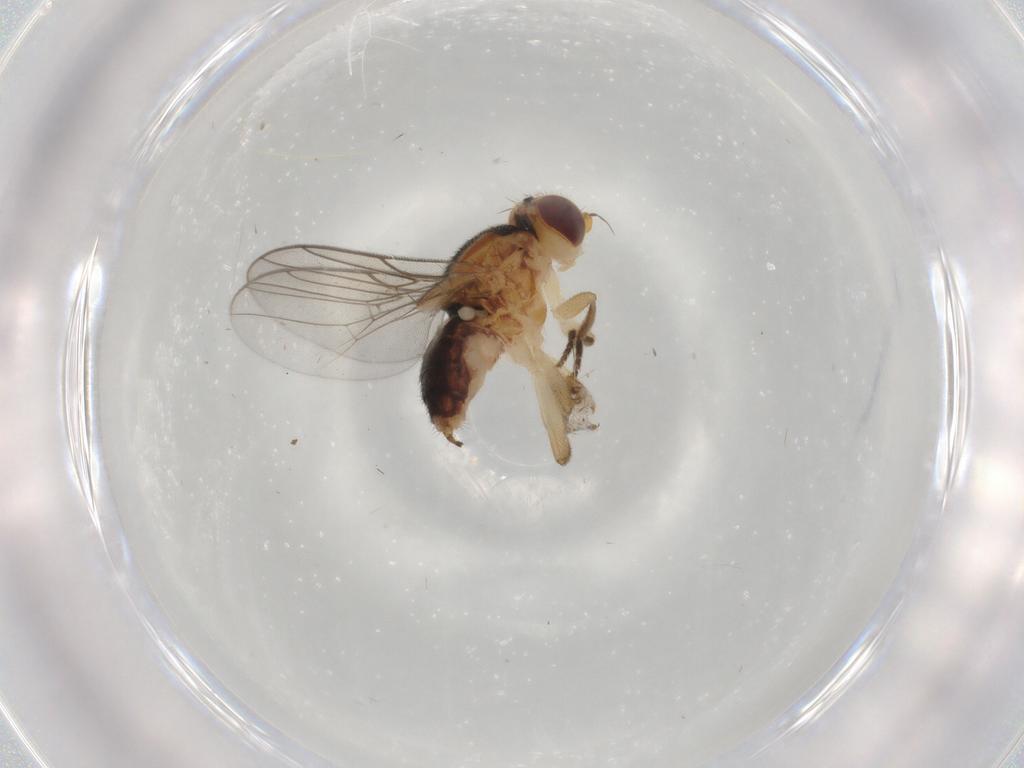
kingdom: Animalia
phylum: Arthropoda
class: Insecta
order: Diptera
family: Chloropidae
